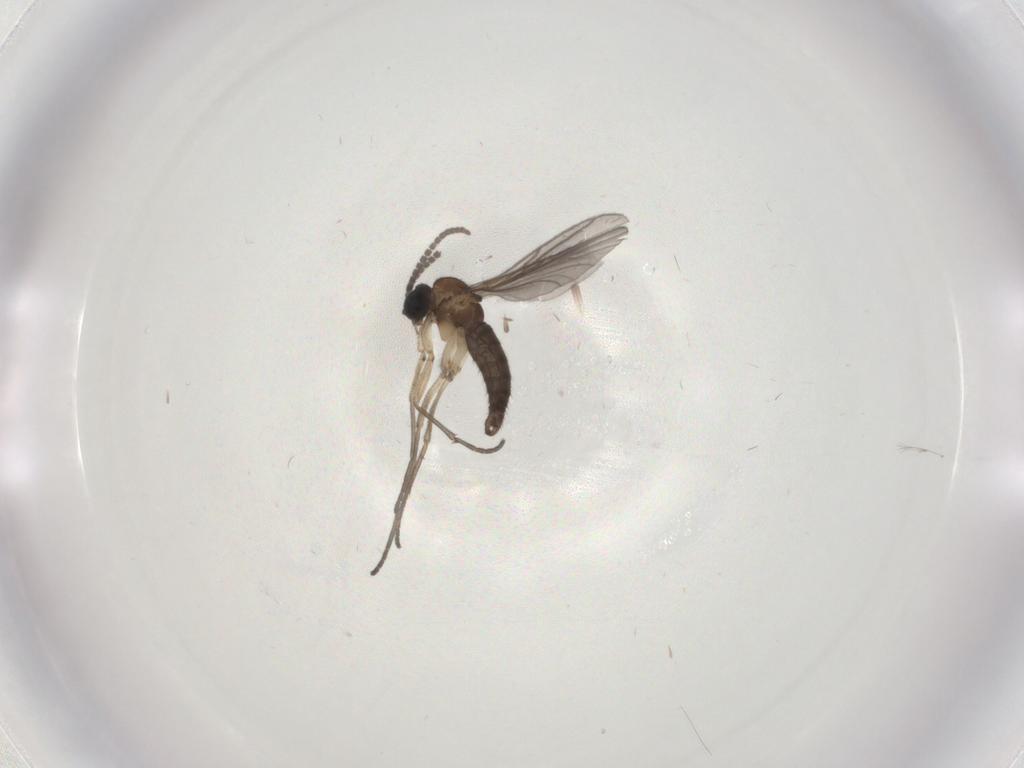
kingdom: Animalia
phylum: Arthropoda
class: Insecta
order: Diptera
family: Sciaridae
